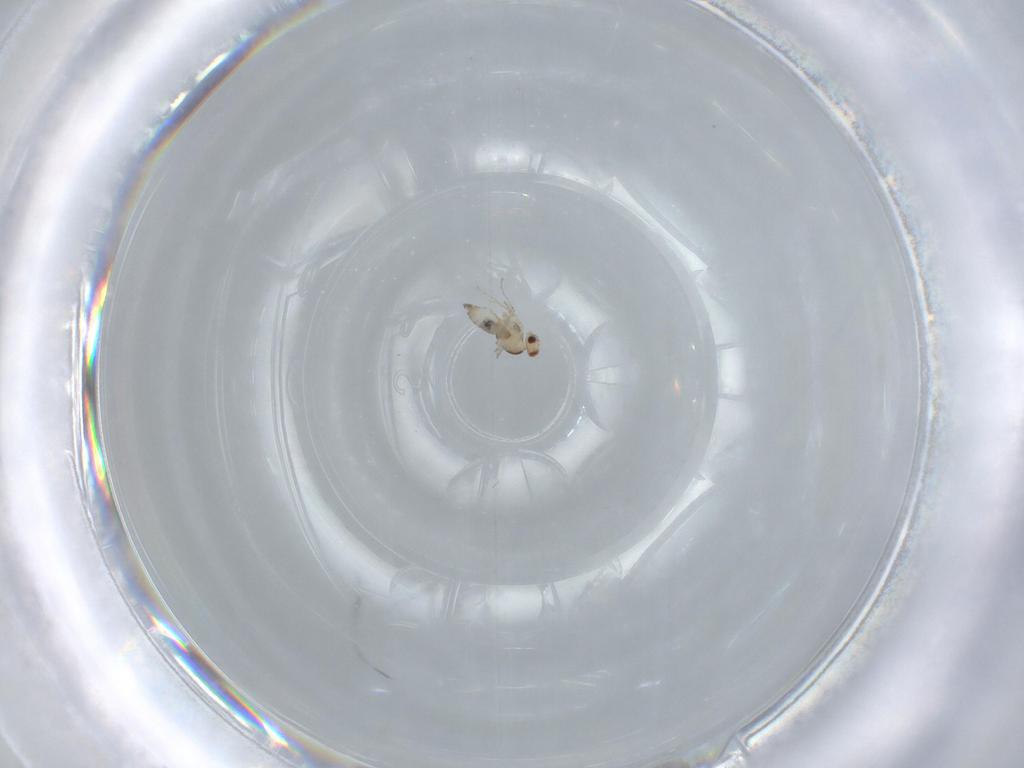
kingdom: Animalia
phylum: Arthropoda
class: Insecta
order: Diptera
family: Cecidomyiidae
